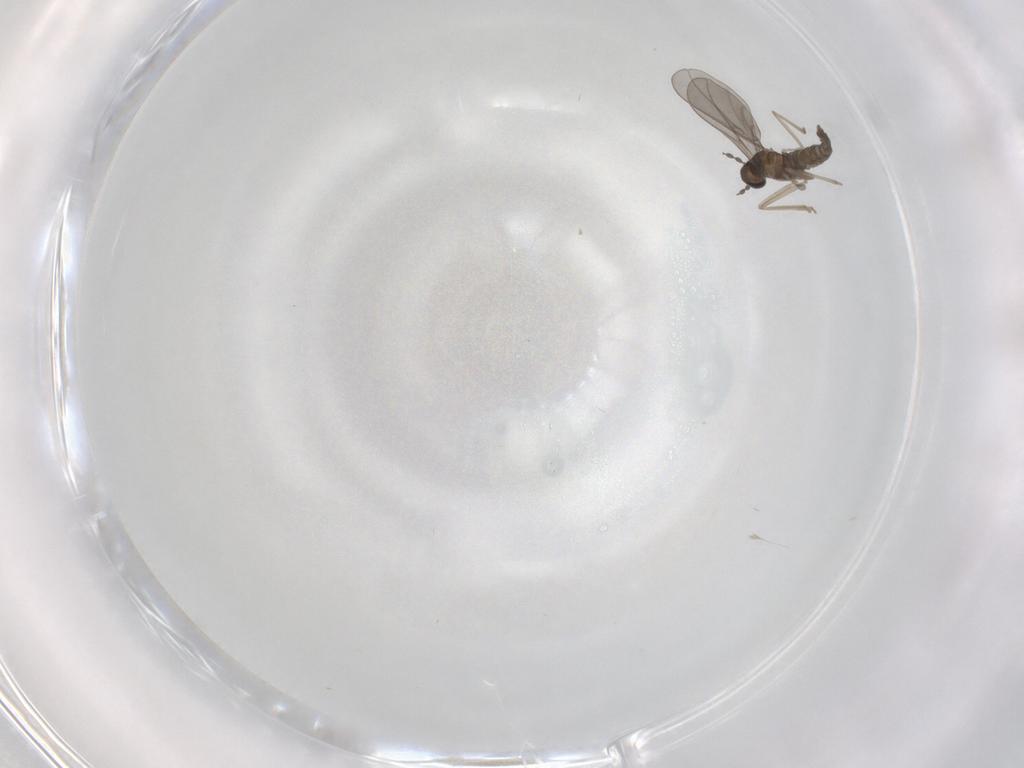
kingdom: Animalia
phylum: Arthropoda
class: Insecta
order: Diptera
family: Cecidomyiidae
